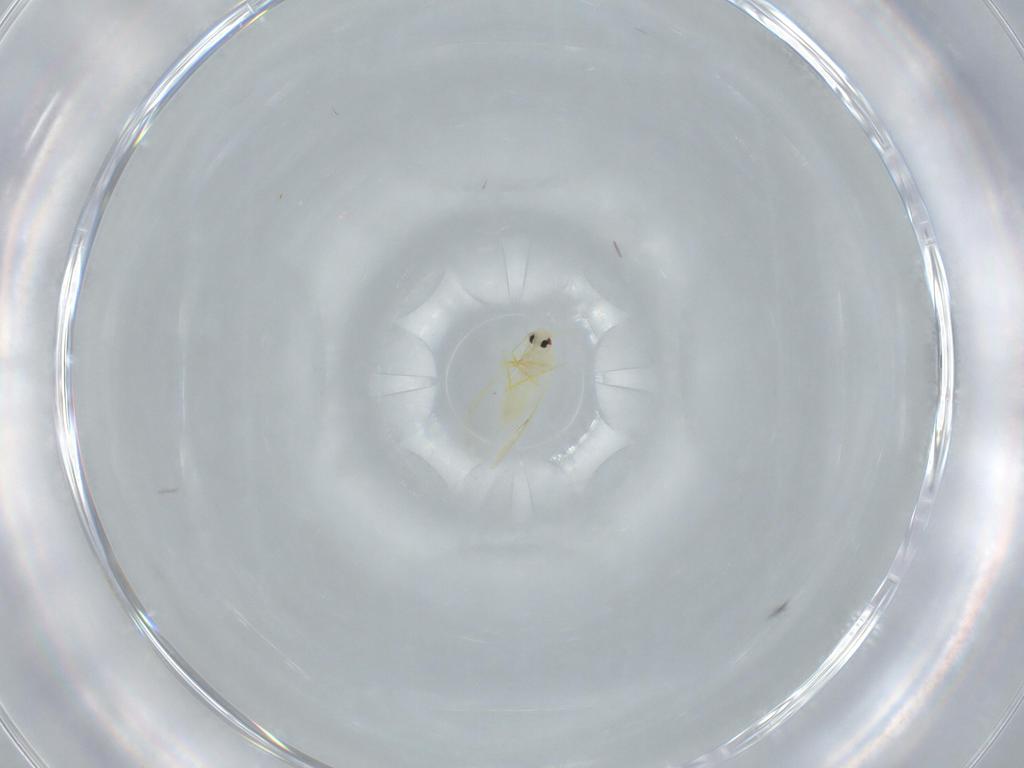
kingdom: Animalia
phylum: Arthropoda
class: Insecta
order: Hemiptera
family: Aleyrodidae
